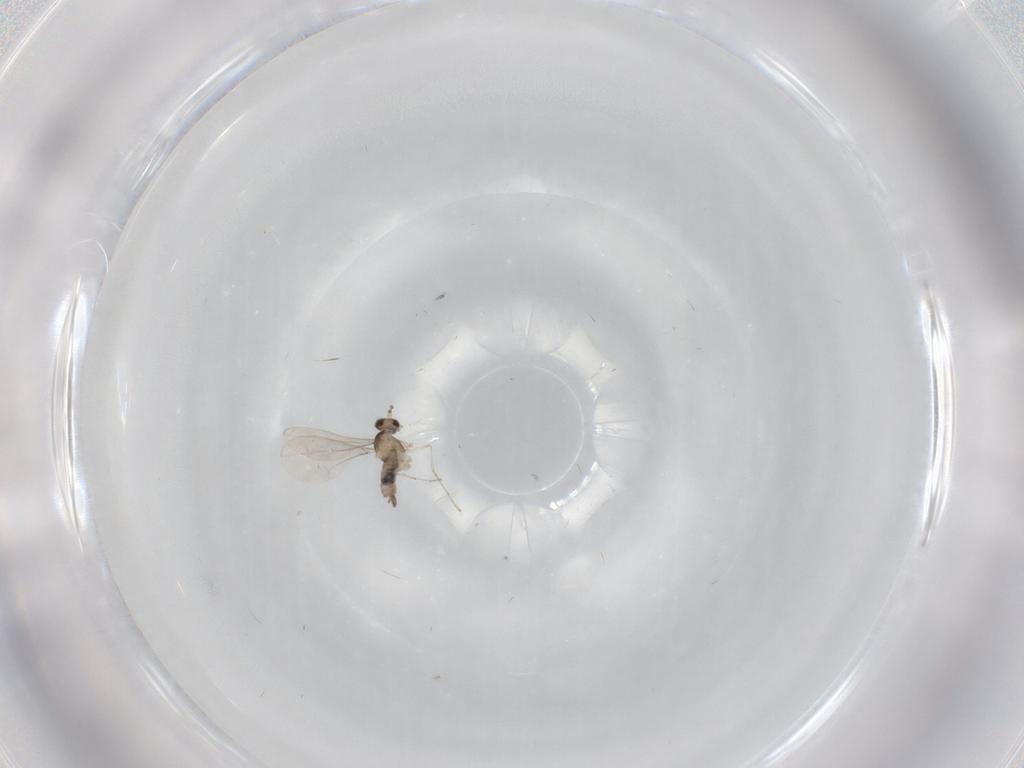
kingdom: Animalia
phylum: Arthropoda
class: Insecta
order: Diptera
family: Cecidomyiidae
